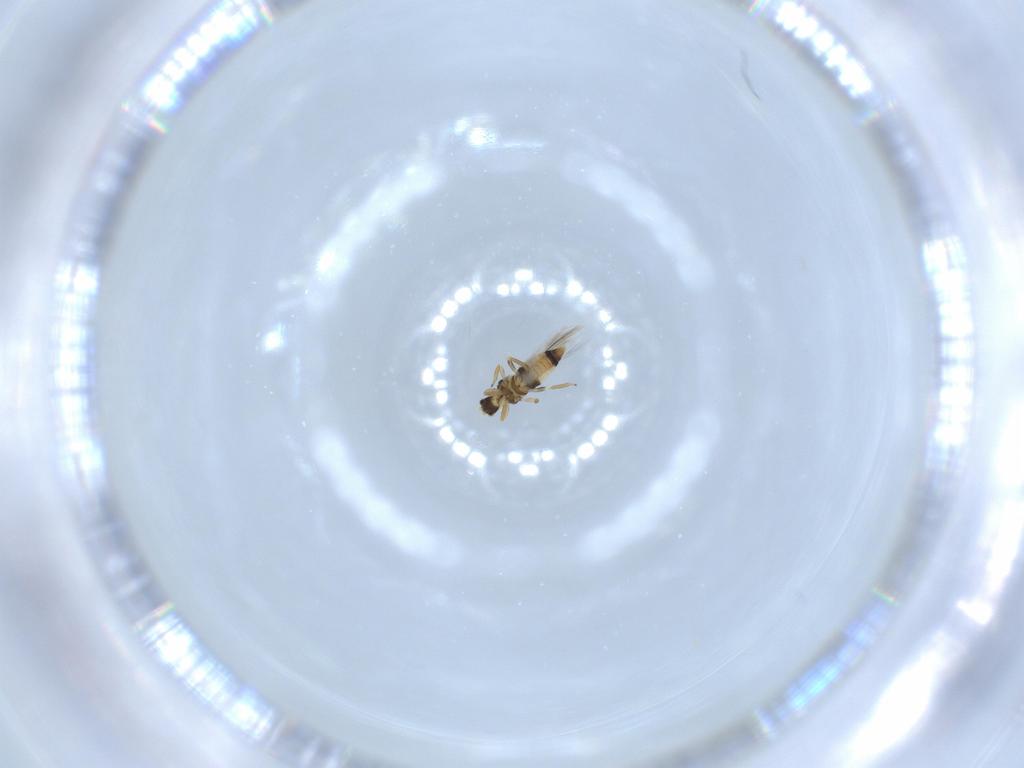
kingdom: Animalia
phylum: Arthropoda
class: Insecta
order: Thysanoptera
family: Thripidae
